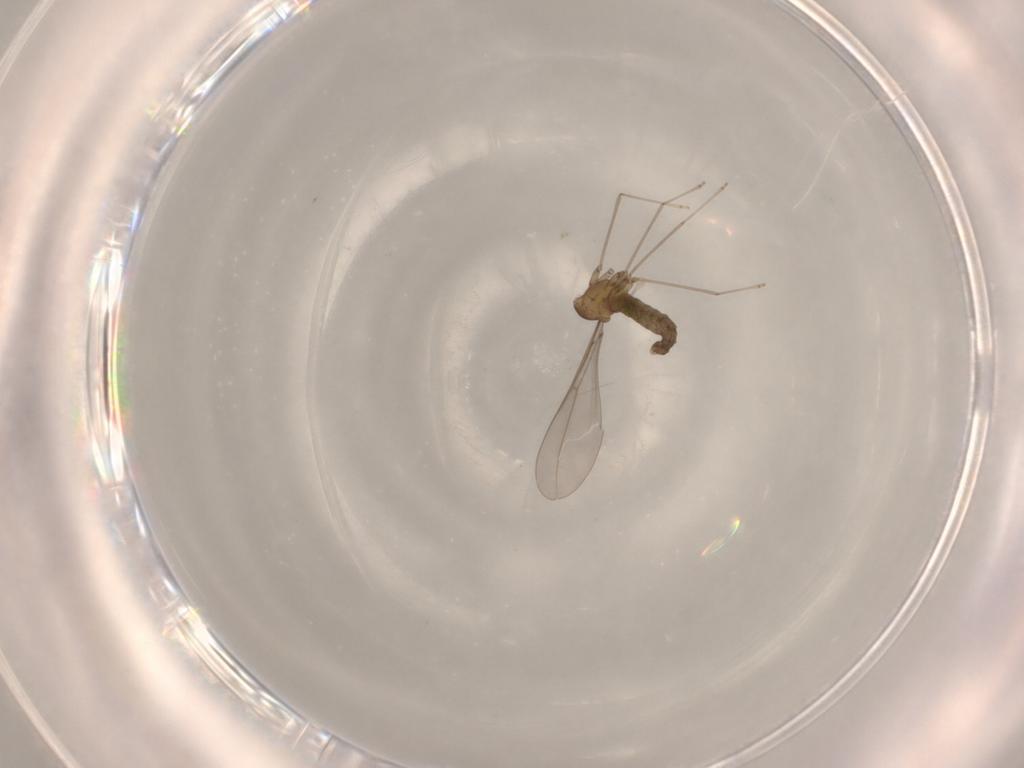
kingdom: Animalia
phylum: Arthropoda
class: Insecta
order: Diptera
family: Cecidomyiidae
